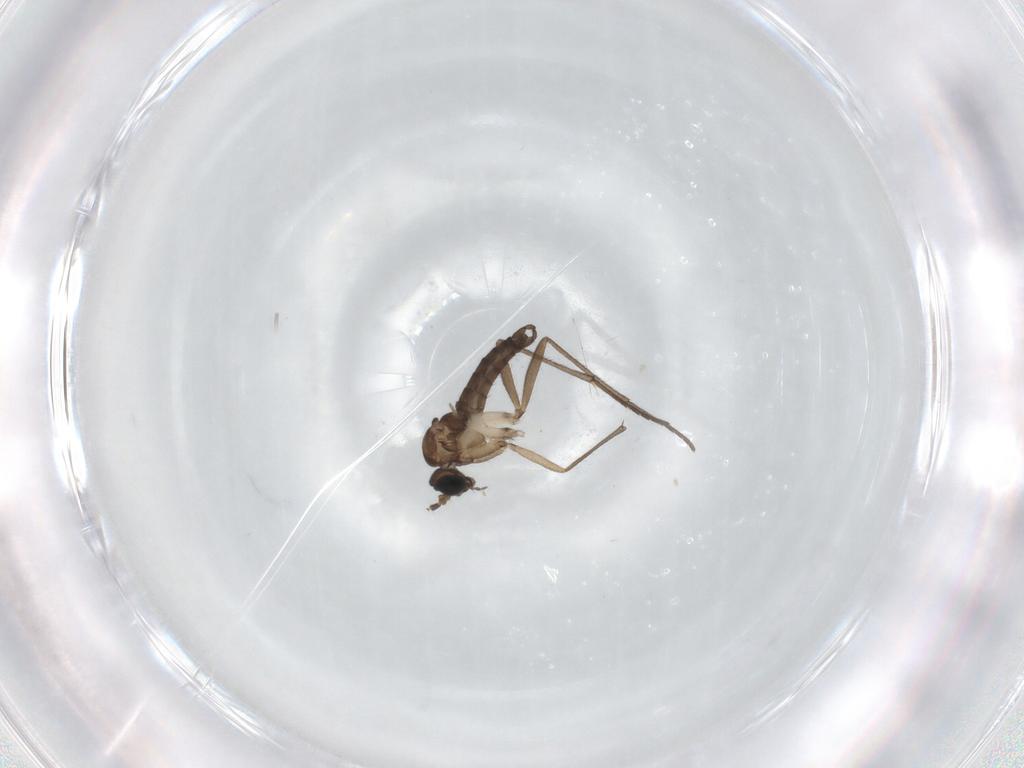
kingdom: Animalia
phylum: Arthropoda
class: Insecta
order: Diptera
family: Sciaridae
